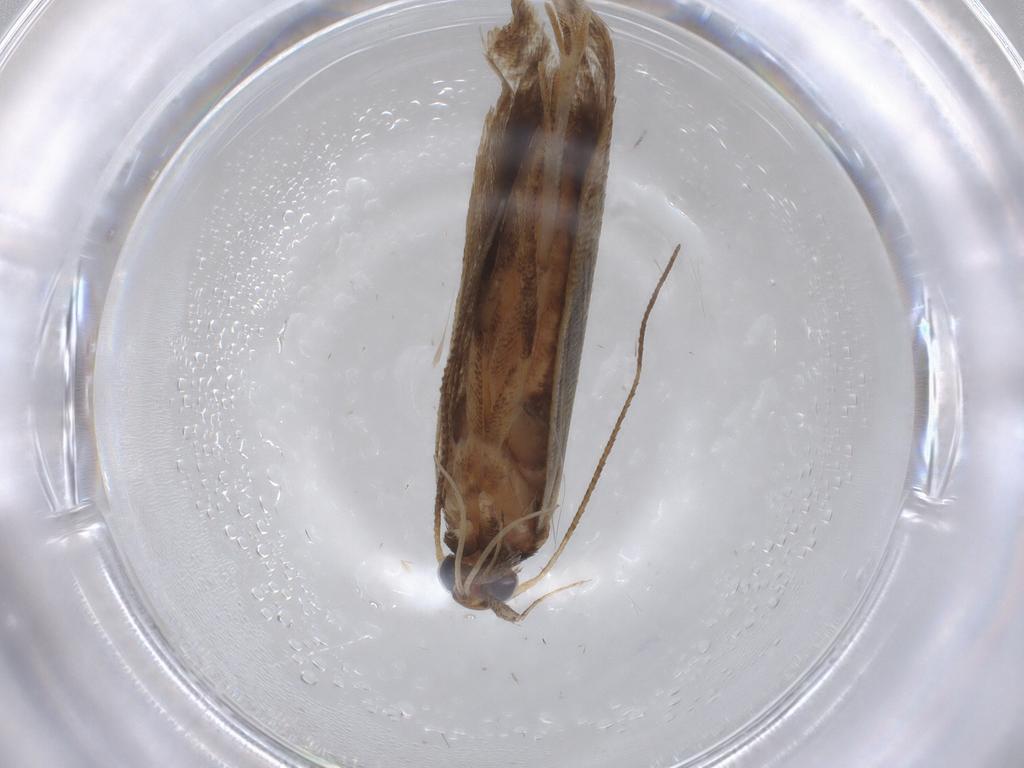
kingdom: Animalia
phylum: Arthropoda
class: Insecta
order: Lepidoptera
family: Gelechiidae
